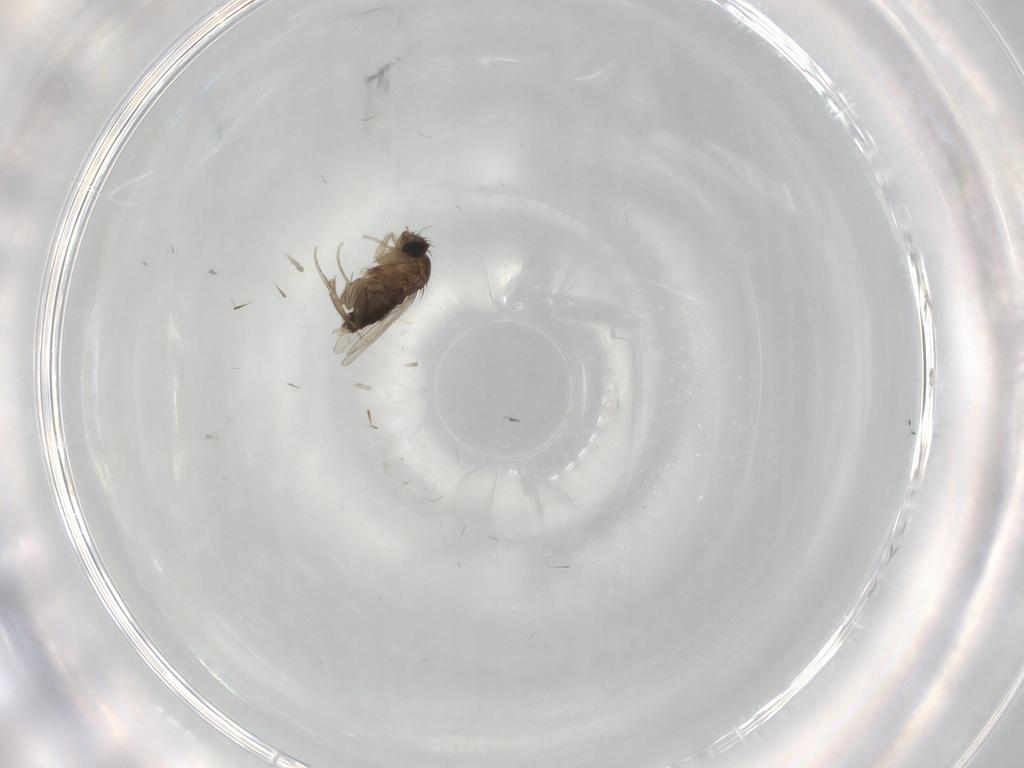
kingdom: Animalia
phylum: Arthropoda
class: Insecta
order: Diptera
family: Phoridae
